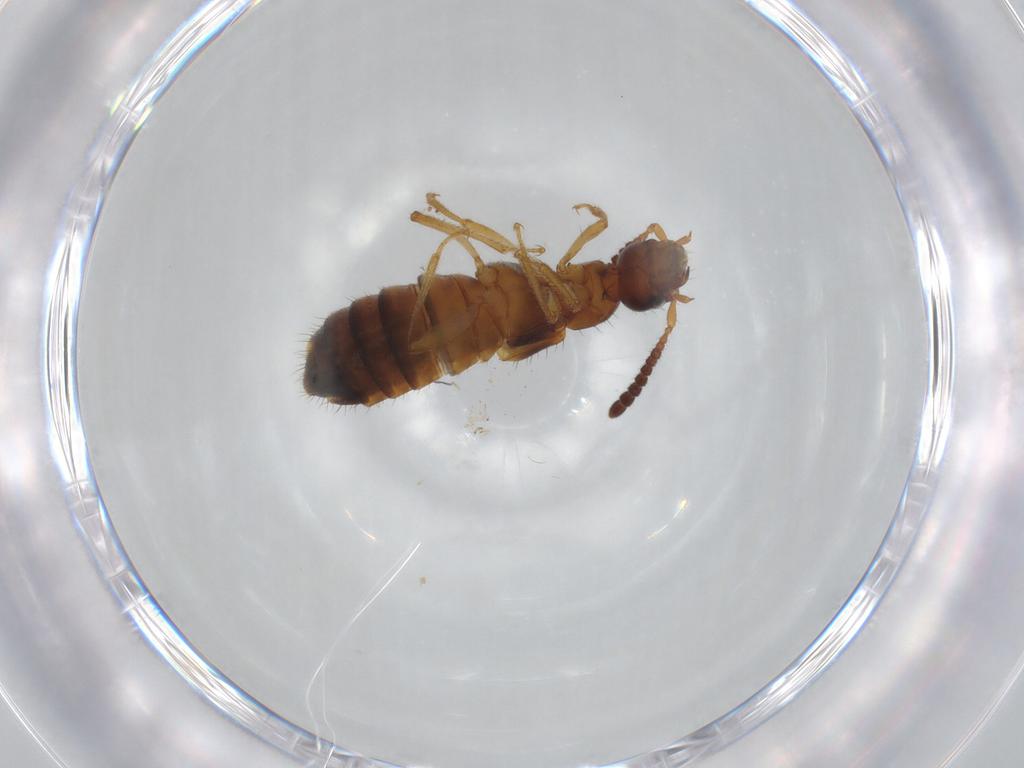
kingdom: Animalia
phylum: Arthropoda
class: Insecta
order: Coleoptera
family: Staphylinidae
